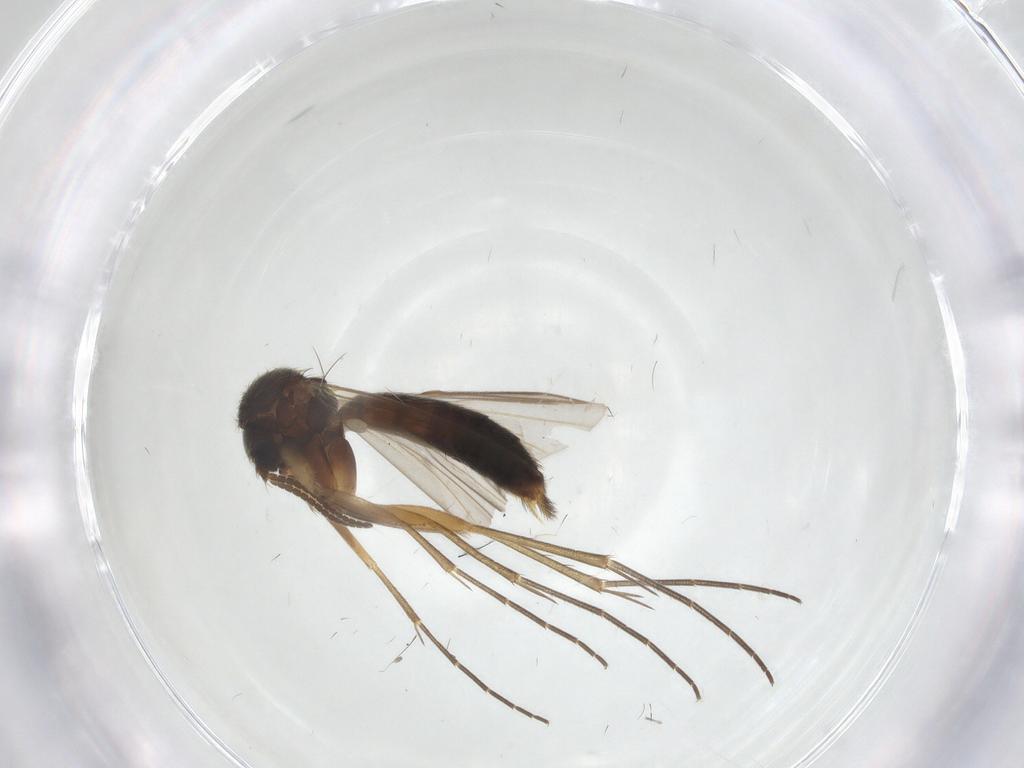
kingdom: Animalia
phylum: Arthropoda
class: Insecta
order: Diptera
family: Mycetophilidae
